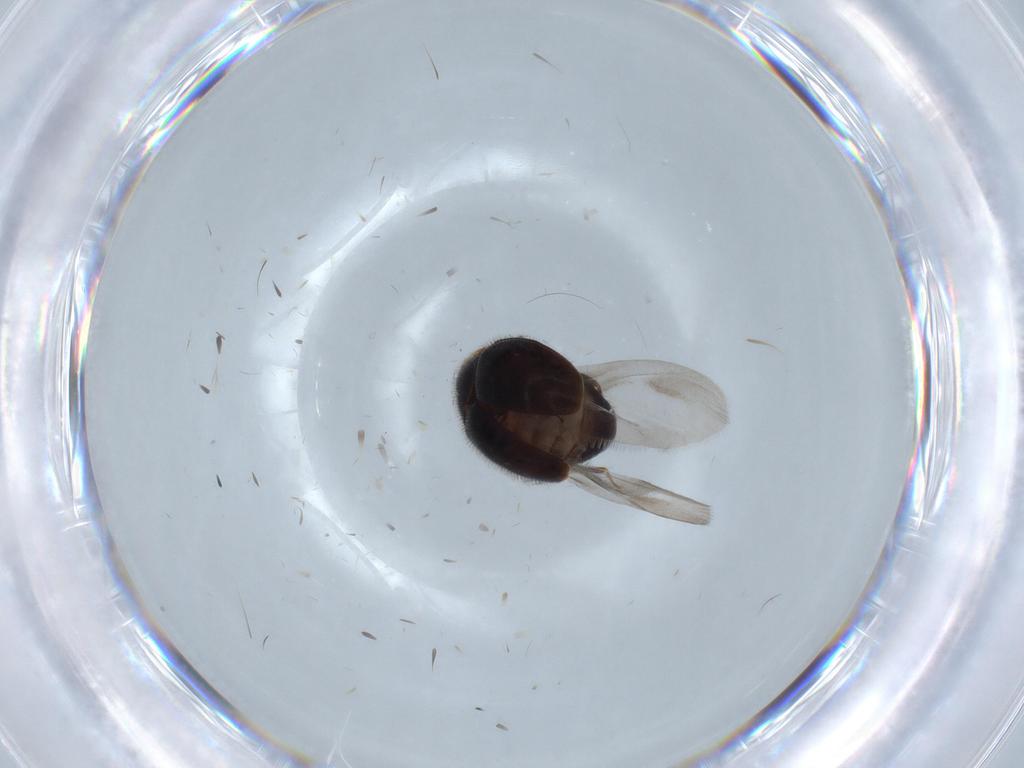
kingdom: Animalia
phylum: Arthropoda
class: Insecta
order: Coleoptera
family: Corylophidae
